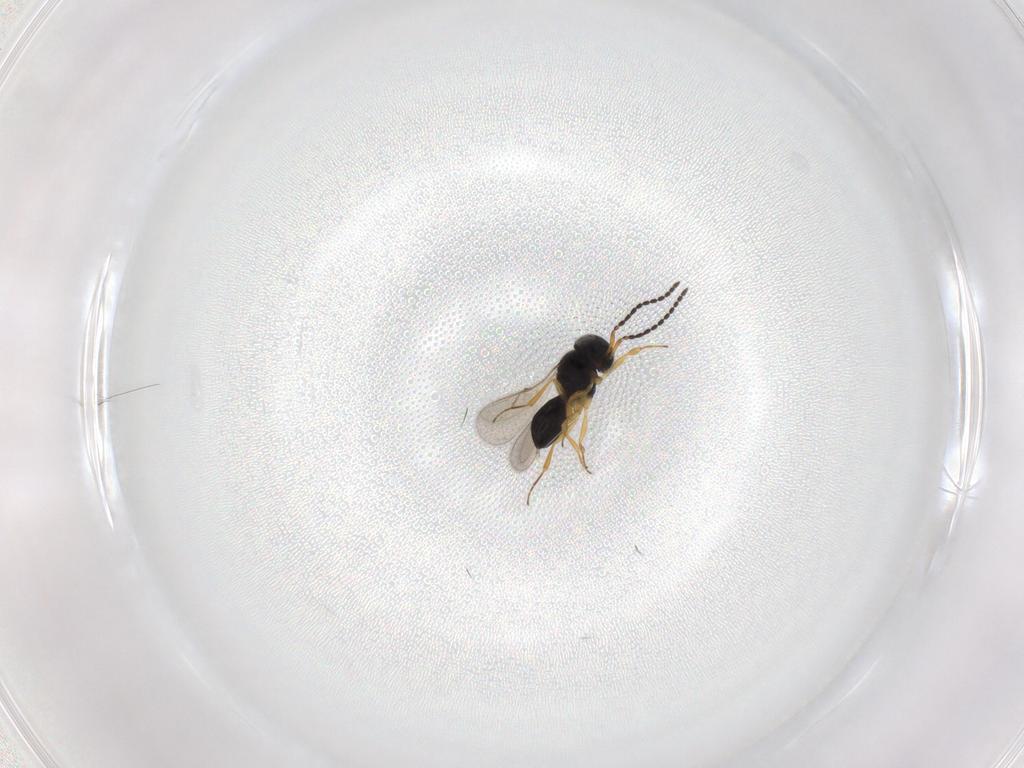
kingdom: Animalia
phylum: Arthropoda
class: Insecta
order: Hymenoptera
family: Scelionidae
